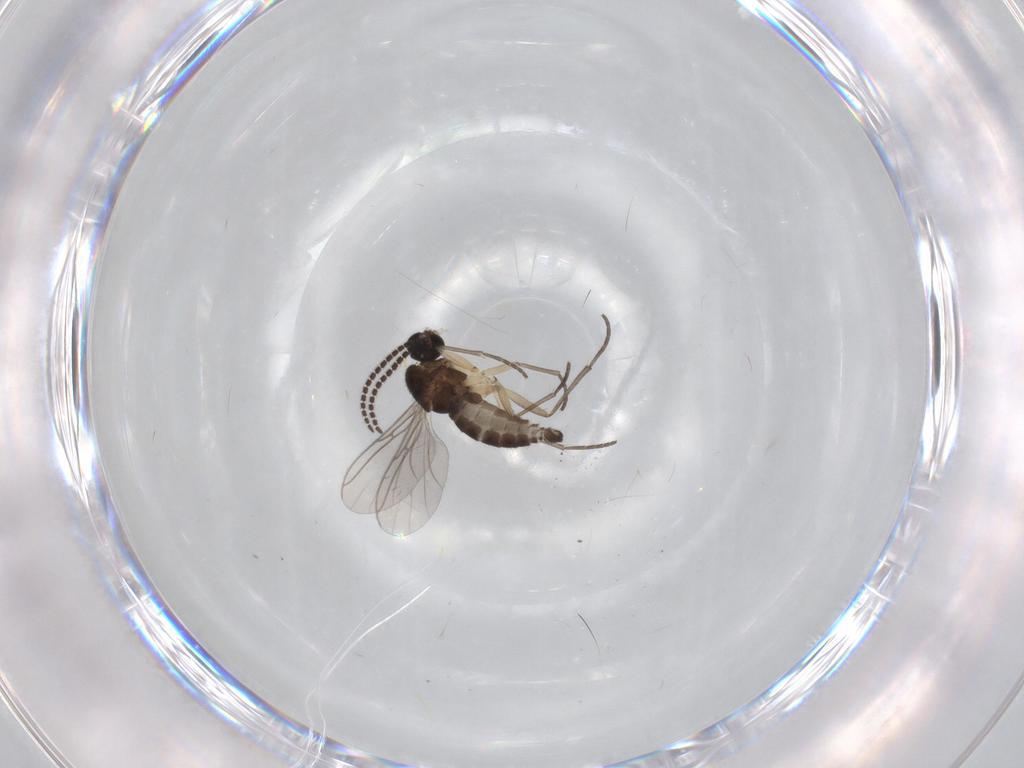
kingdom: Animalia
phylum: Arthropoda
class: Insecta
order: Diptera
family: Sciaridae
